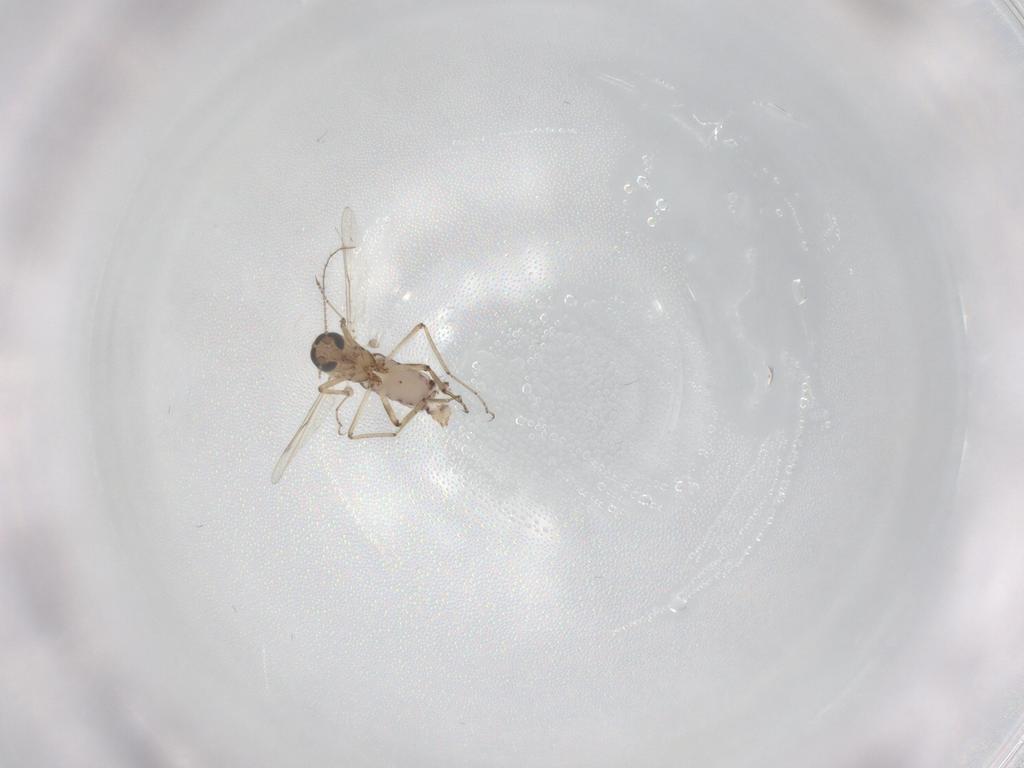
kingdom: Animalia
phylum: Arthropoda
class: Insecta
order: Diptera
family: Ceratopogonidae
